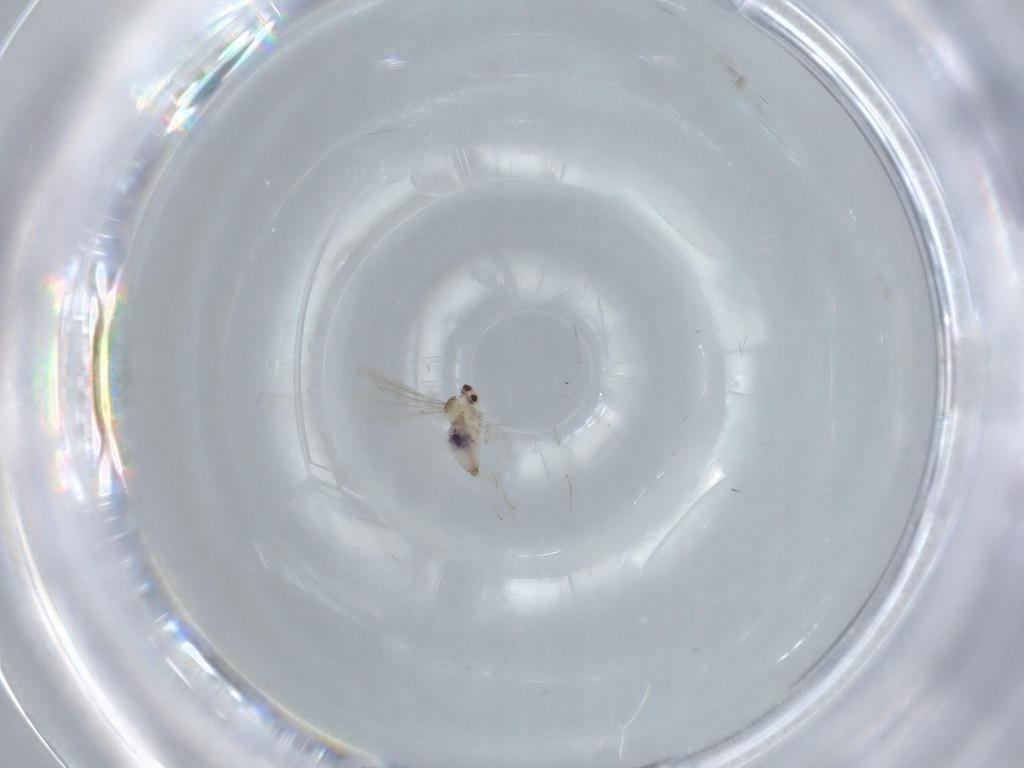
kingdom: Animalia
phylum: Arthropoda
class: Insecta
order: Diptera
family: Cecidomyiidae
